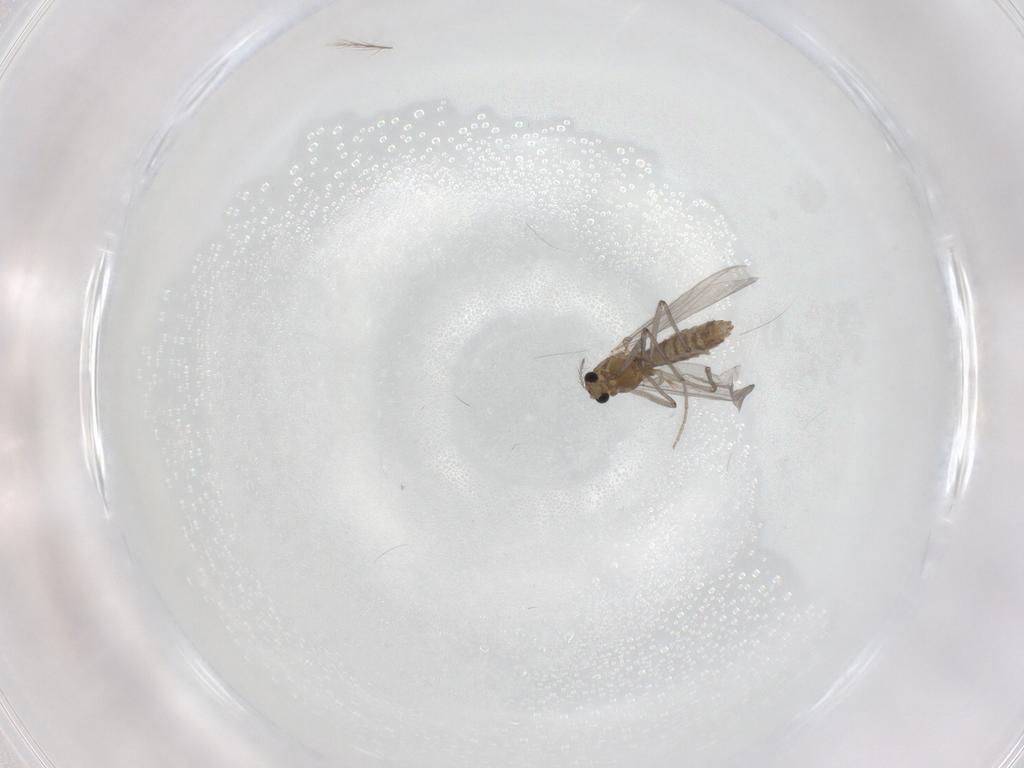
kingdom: Animalia
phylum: Arthropoda
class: Insecta
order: Diptera
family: Chironomidae
